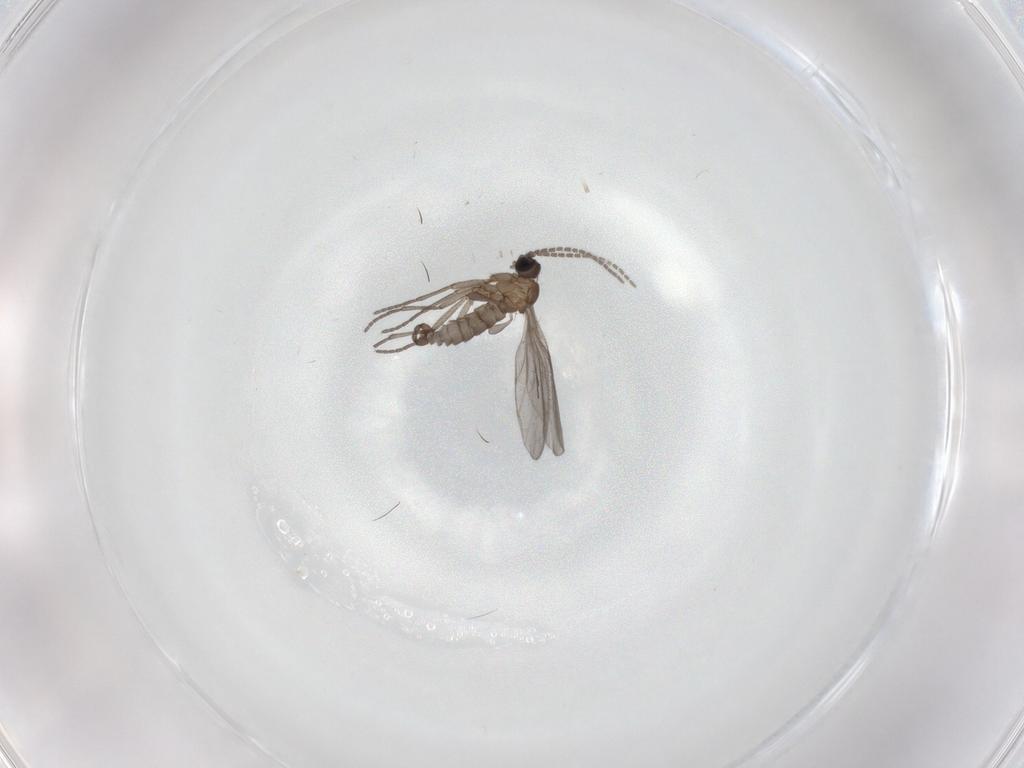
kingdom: Animalia
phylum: Arthropoda
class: Insecta
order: Diptera
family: Sciaridae
